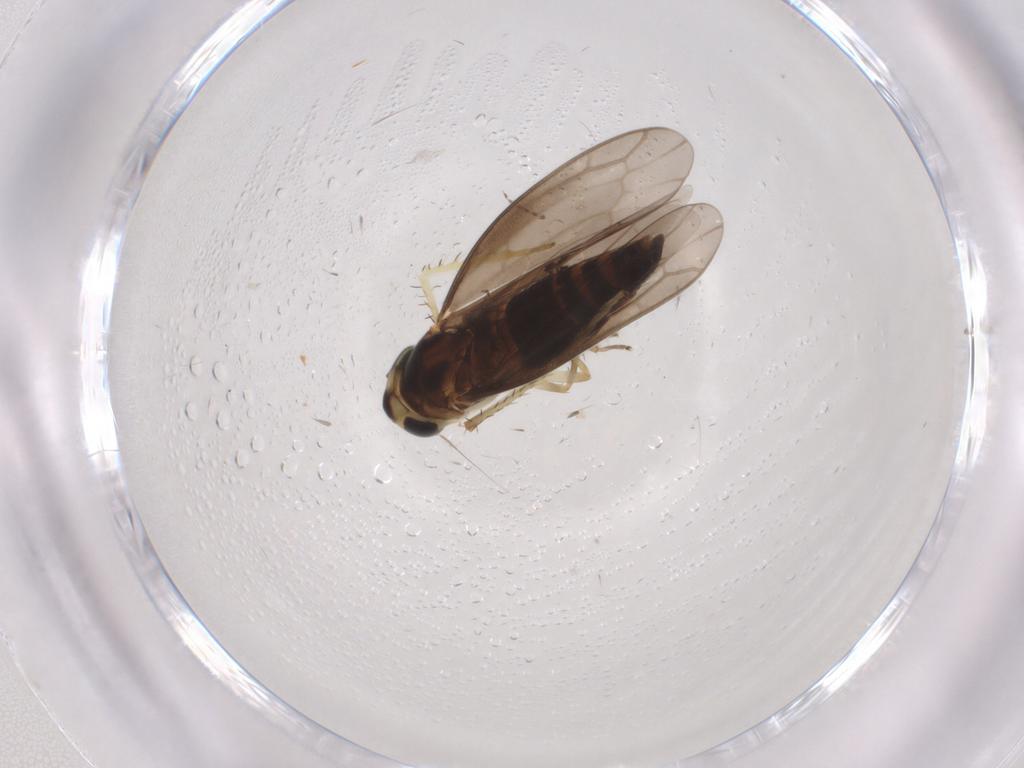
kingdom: Animalia
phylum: Arthropoda
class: Insecta
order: Hemiptera
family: Cicadellidae
